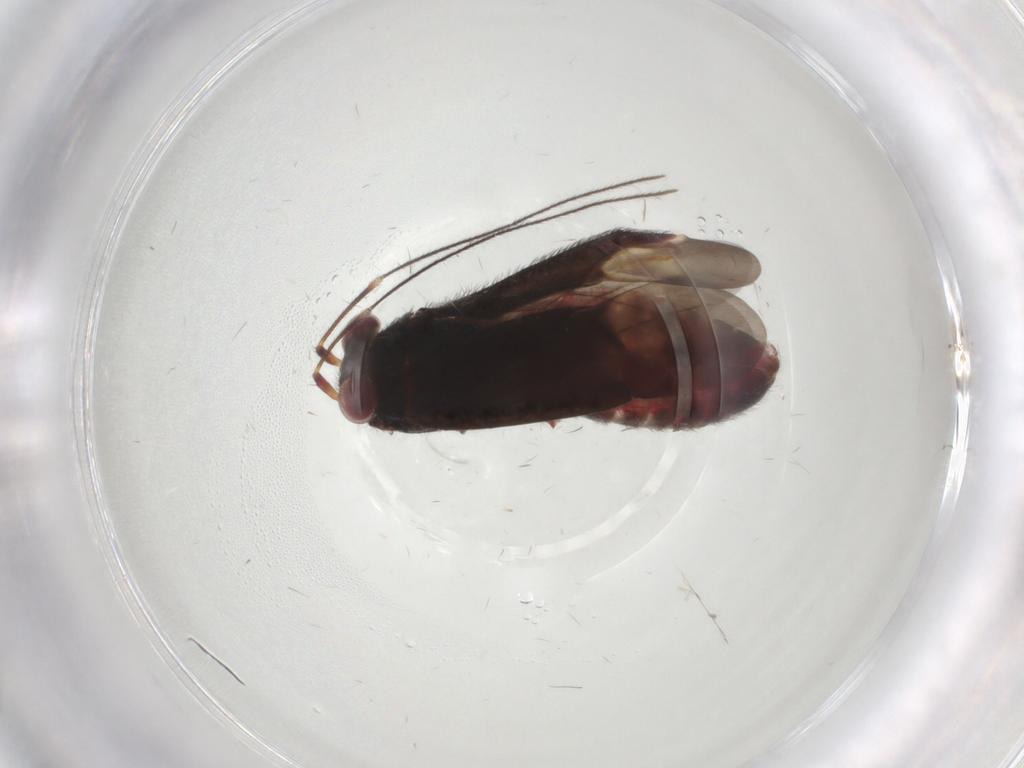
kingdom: Animalia
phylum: Arthropoda
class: Insecta
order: Hemiptera
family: Miridae
